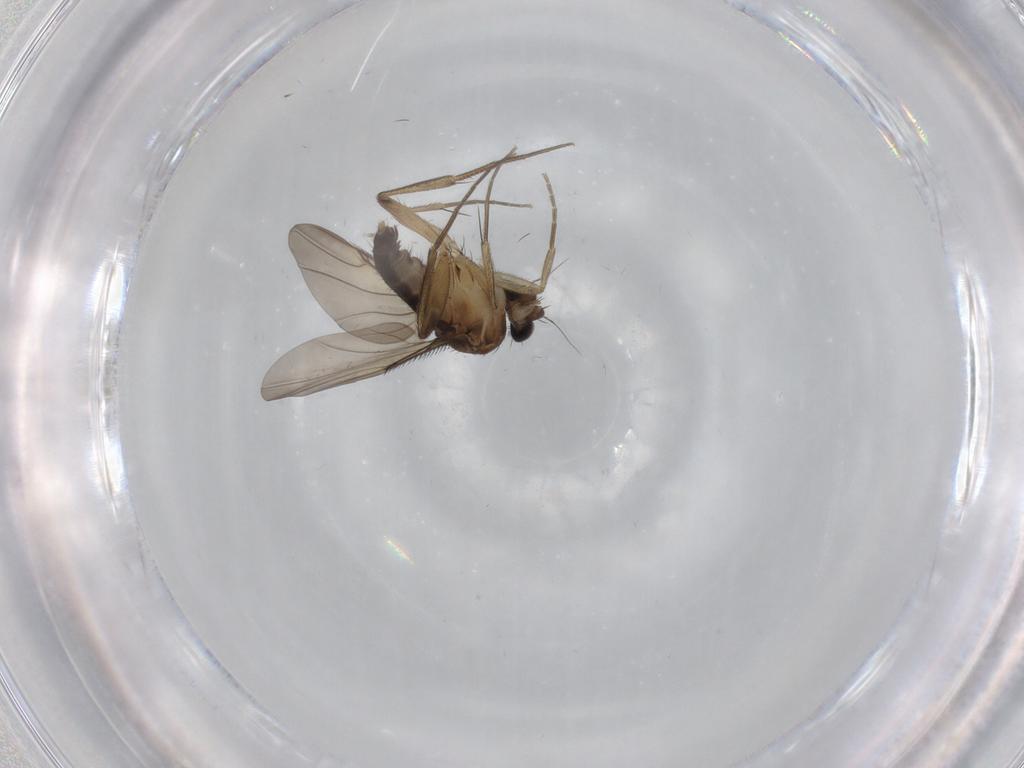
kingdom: Animalia
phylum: Arthropoda
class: Insecta
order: Diptera
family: Phoridae
